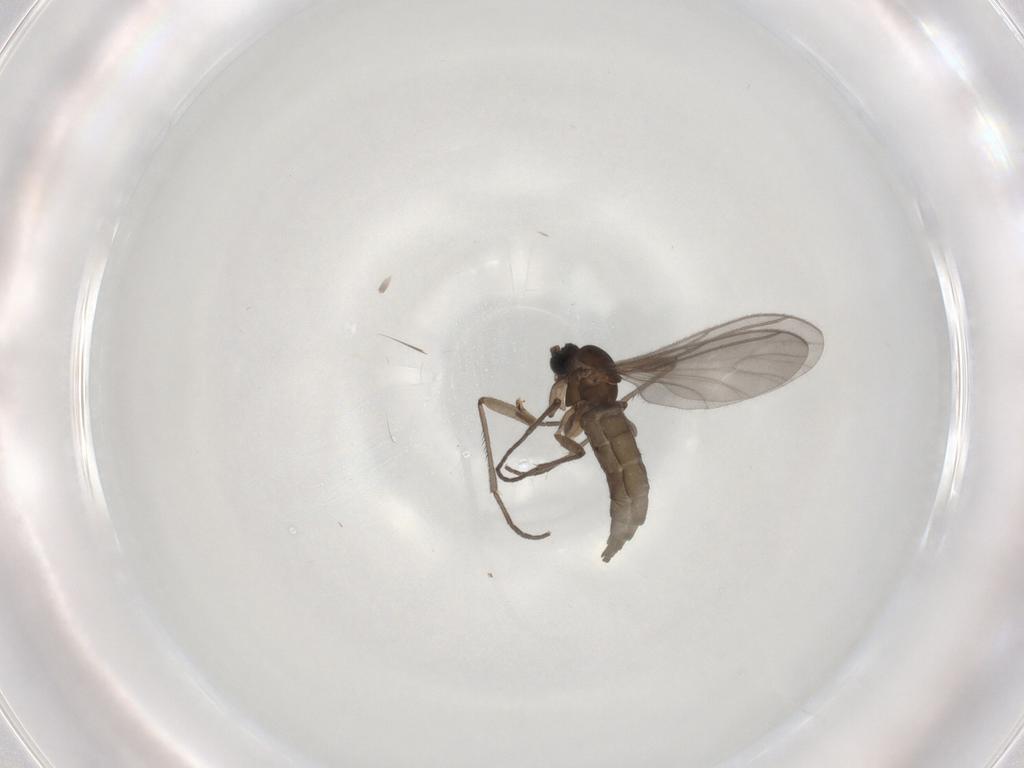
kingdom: Animalia
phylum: Arthropoda
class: Insecta
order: Diptera
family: Sciaridae
